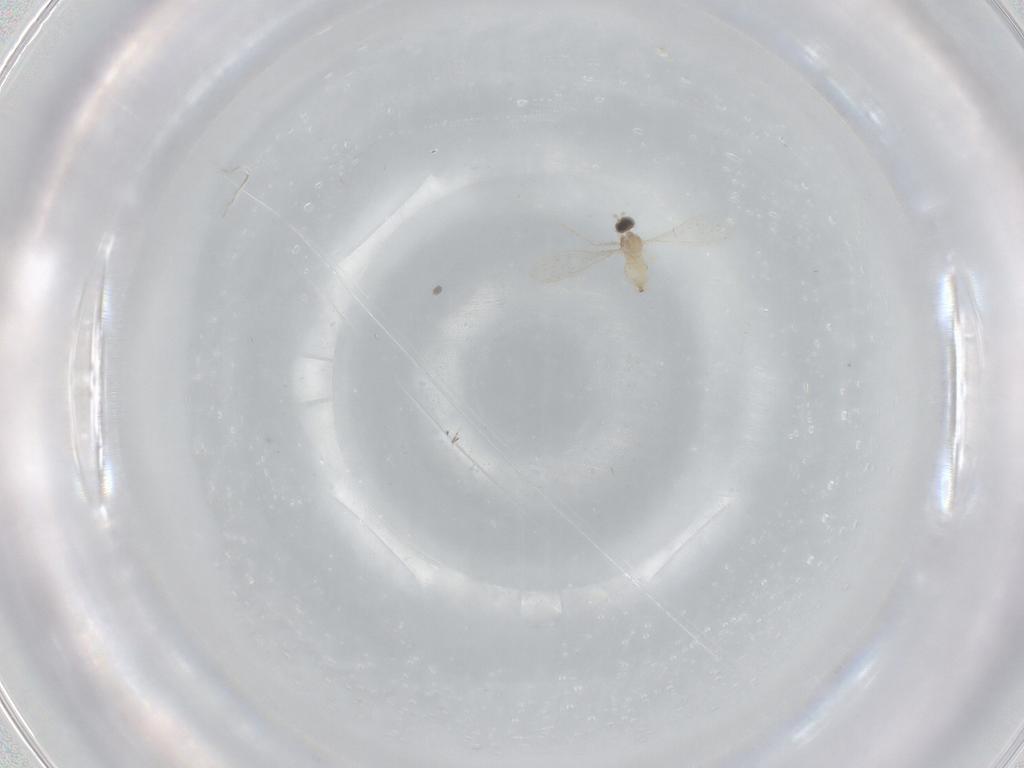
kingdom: Animalia
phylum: Arthropoda
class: Insecta
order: Diptera
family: Cecidomyiidae
